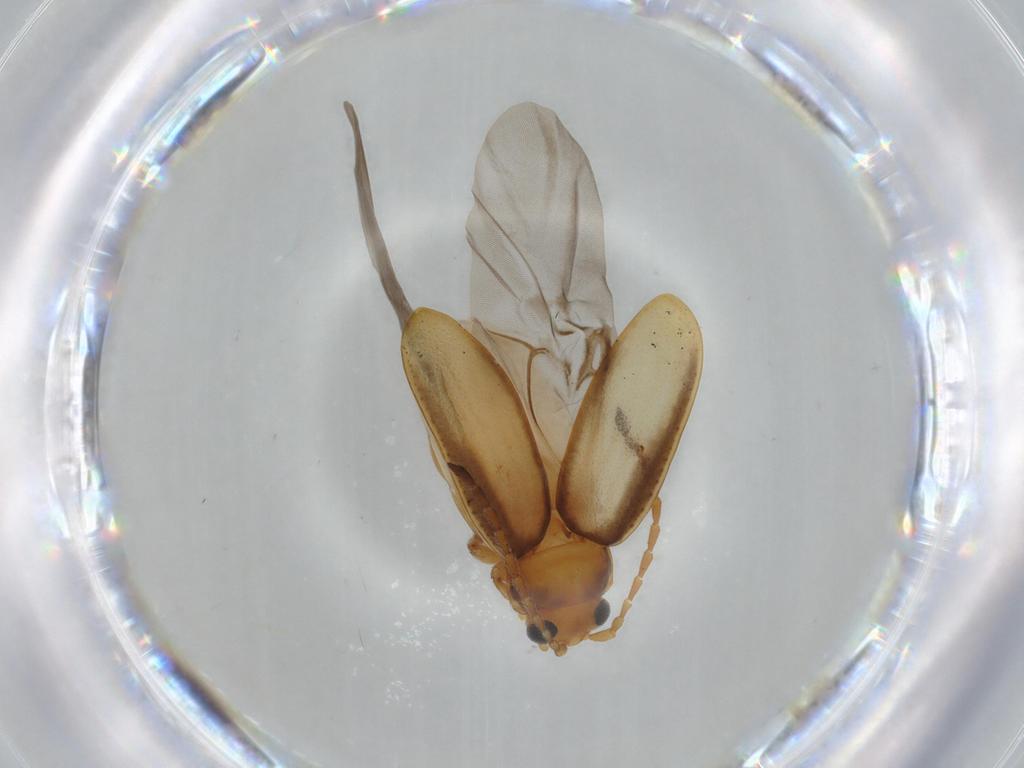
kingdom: Animalia
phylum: Arthropoda
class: Insecta
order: Coleoptera
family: Chrysomelidae
